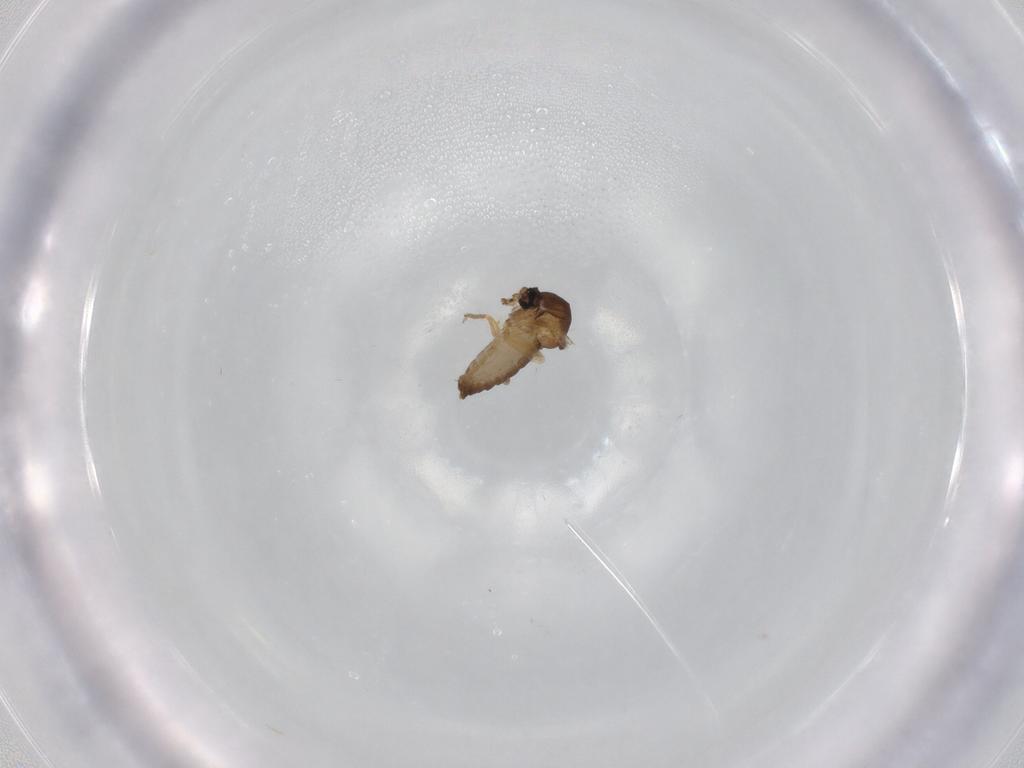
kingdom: Animalia
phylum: Arthropoda
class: Insecta
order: Diptera
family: Ceratopogonidae
